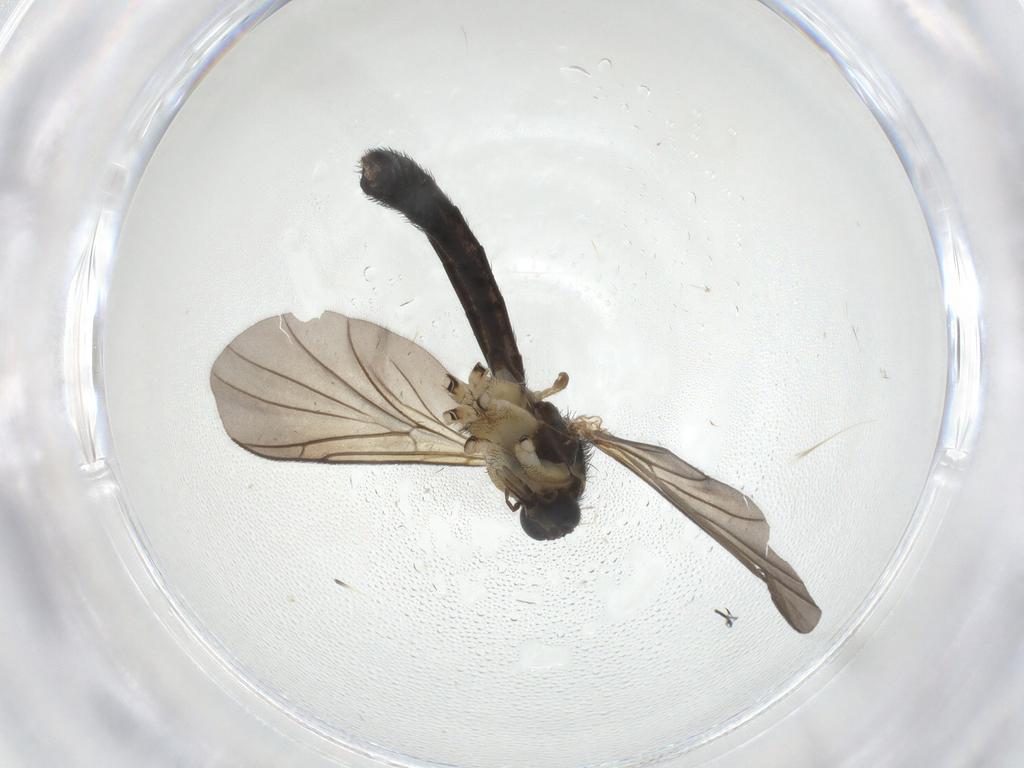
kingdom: Animalia
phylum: Arthropoda
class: Insecta
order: Diptera
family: Keroplatidae
